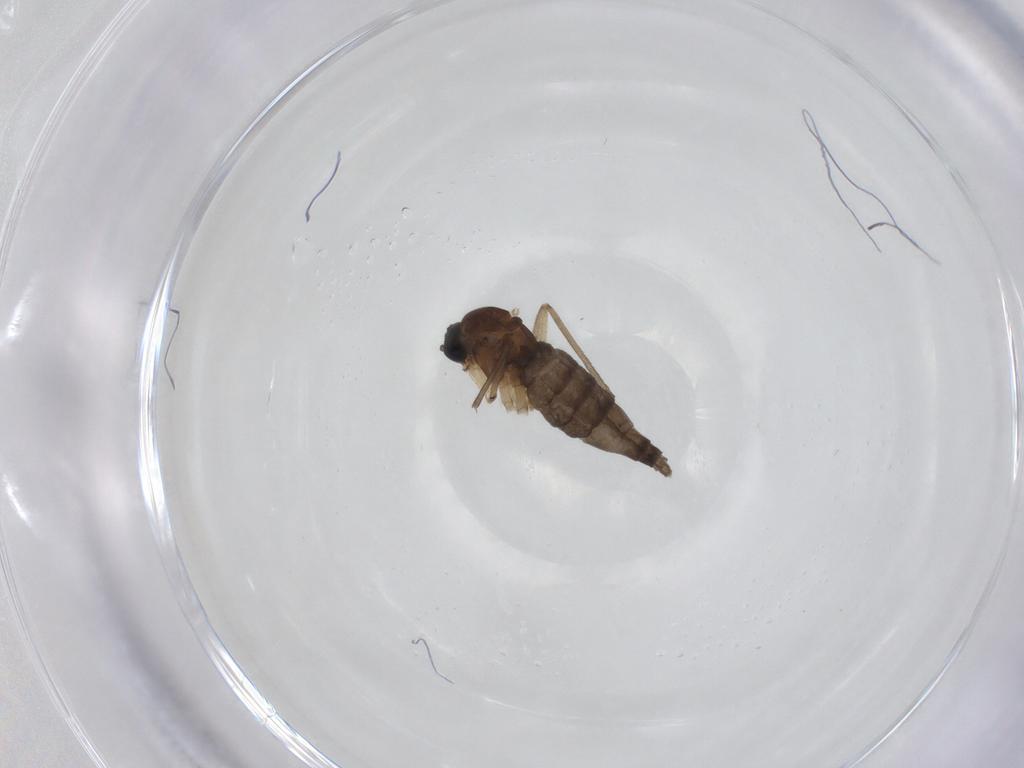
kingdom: Animalia
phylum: Arthropoda
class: Insecta
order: Diptera
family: Sciaridae
